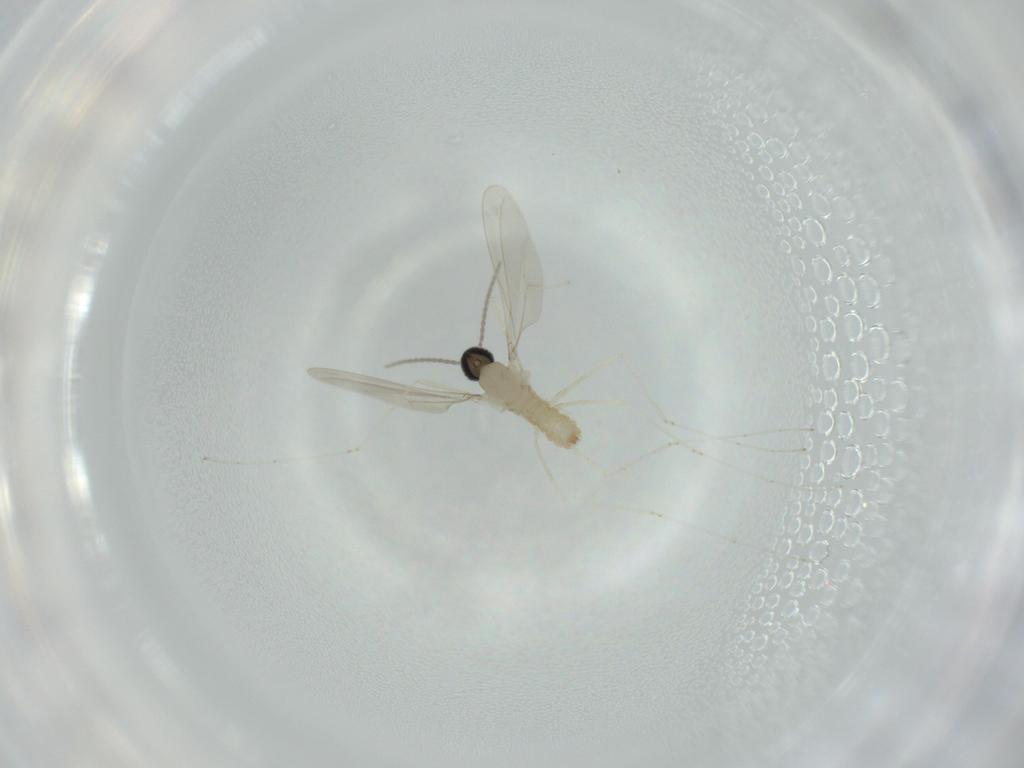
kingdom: Animalia
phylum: Arthropoda
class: Insecta
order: Diptera
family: Cecidomyiidae
